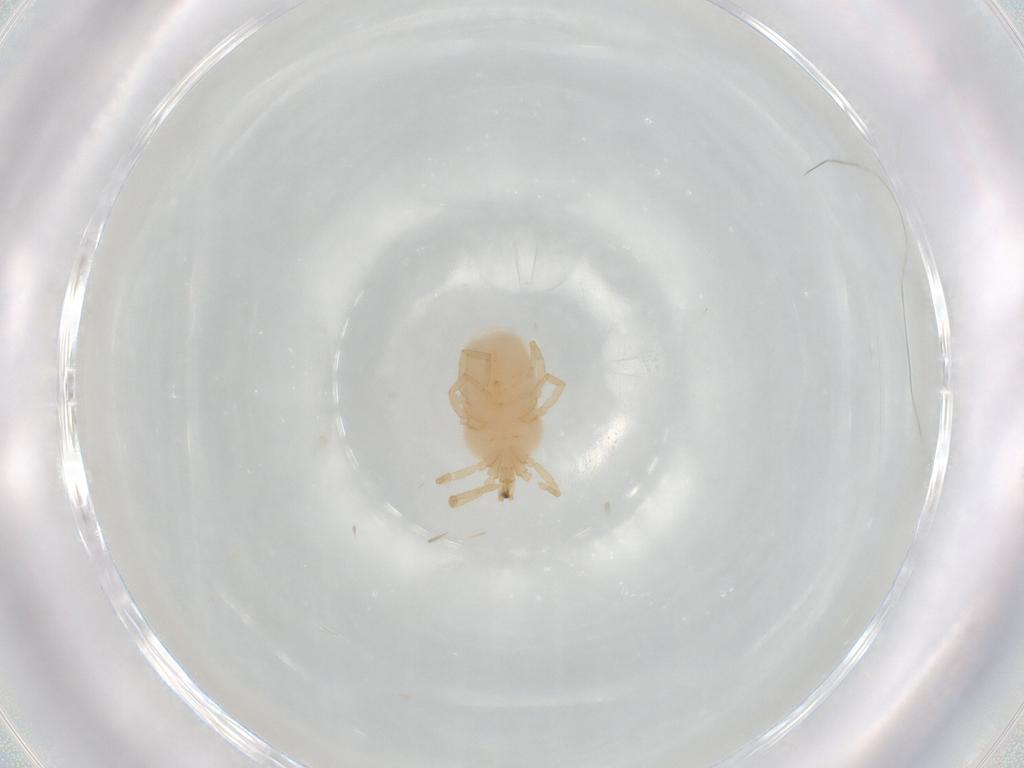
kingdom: Animalia
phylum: Arthropoda
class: Arachnida
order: Trombidiformes
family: Erythraeidae
